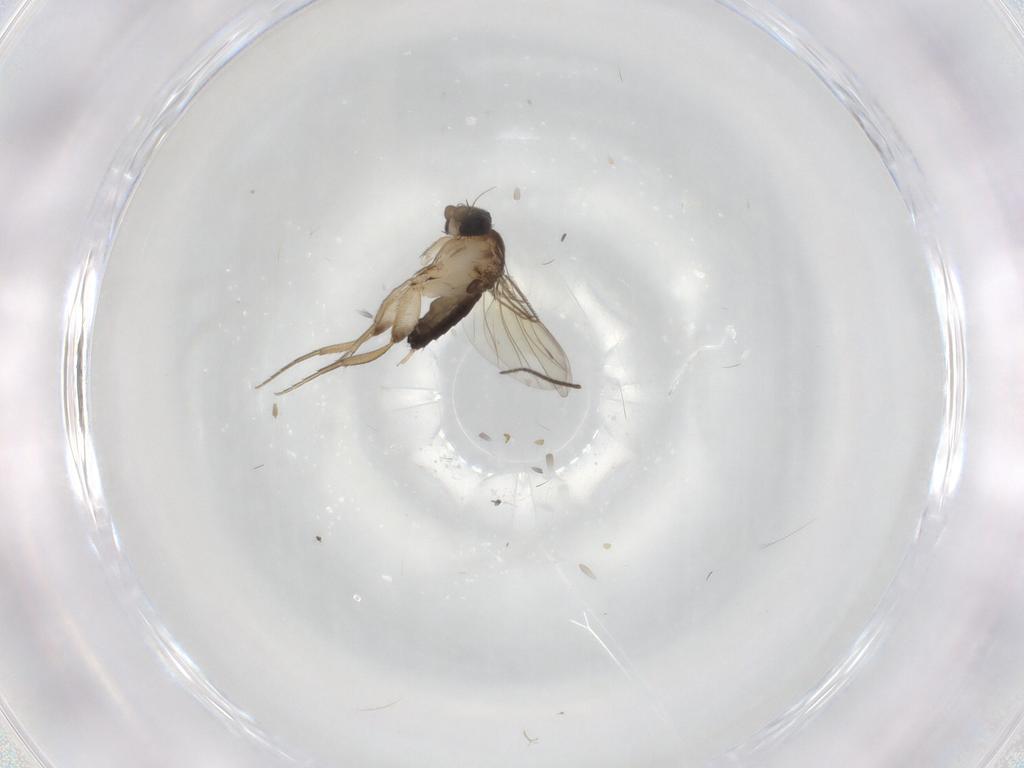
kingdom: Animalia
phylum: Arthropoda
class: Insecta
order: Diptera
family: Phoridae
